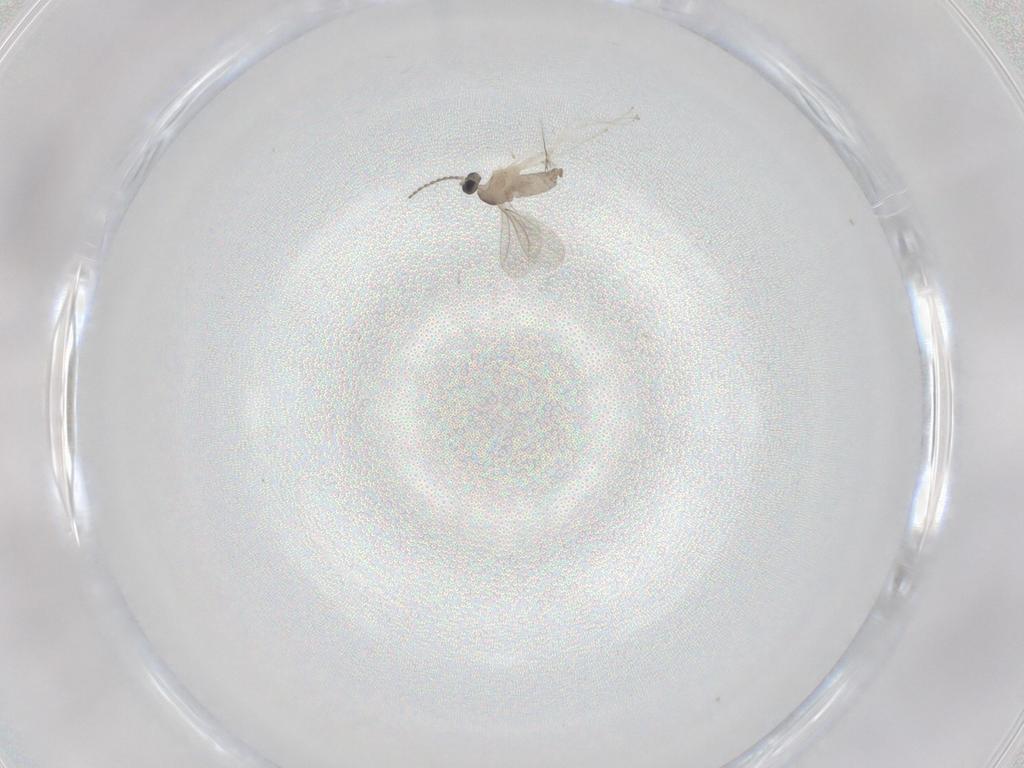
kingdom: Animalia
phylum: Arthropoda
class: Insecta
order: Diptera
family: Cecidomyiidae
